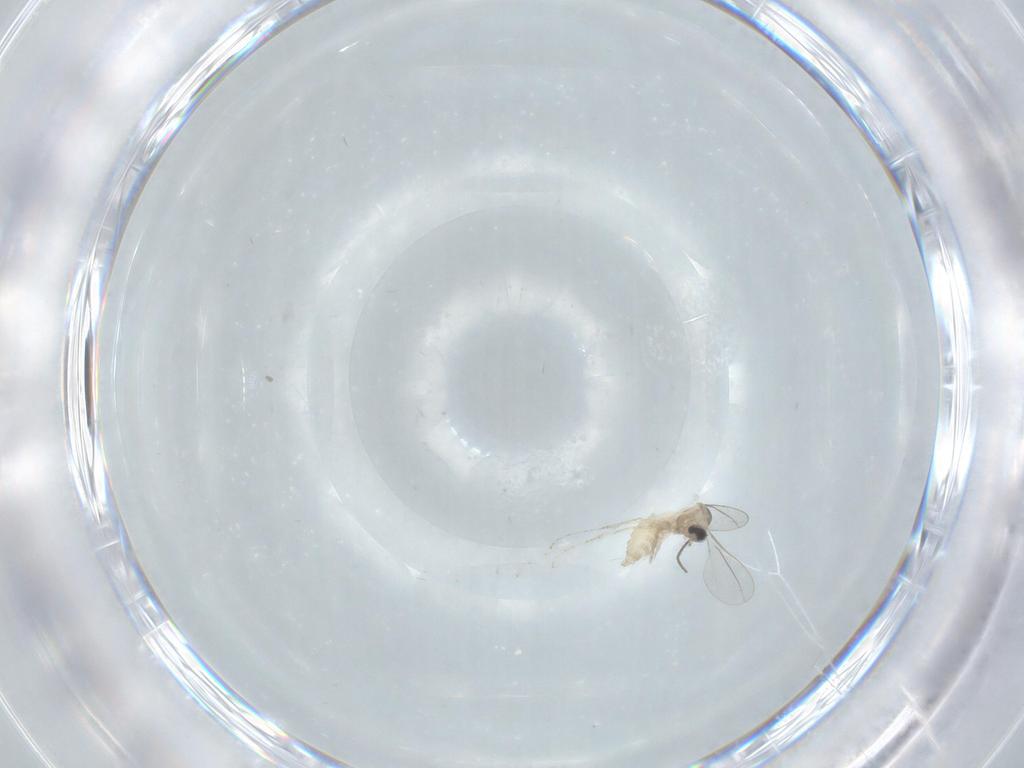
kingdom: Animalia
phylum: Arthropoda
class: Insecta
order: Diptera
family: Cecidomyiidae
